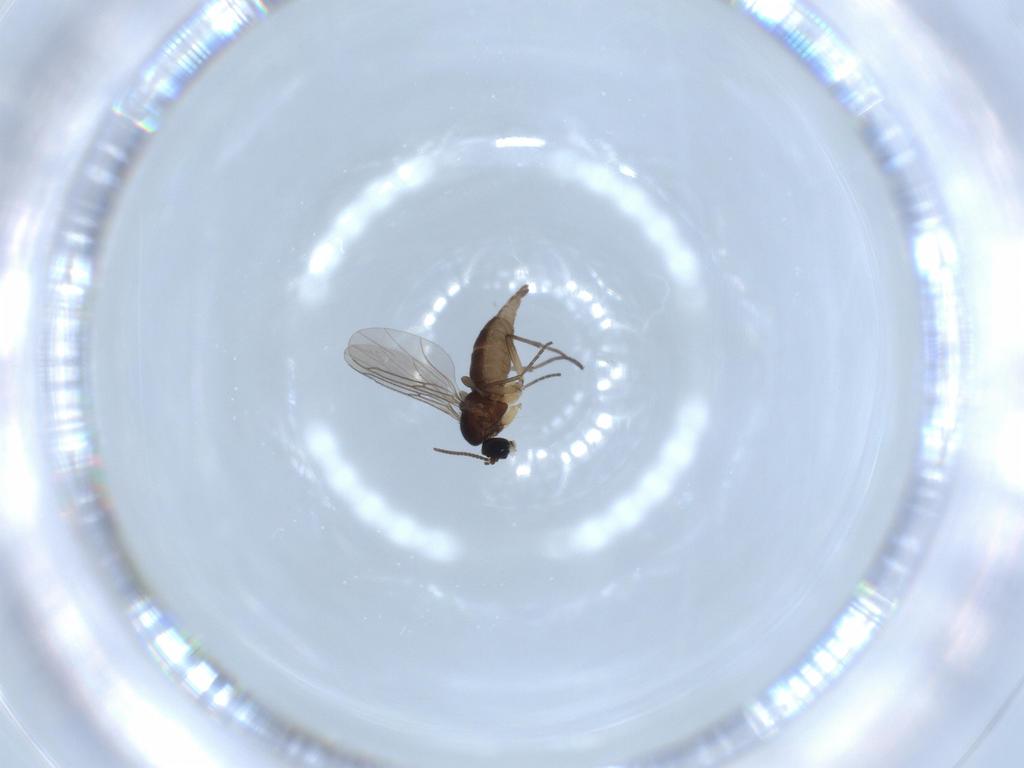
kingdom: Animalia
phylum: Arthropoda
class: Insecta
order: Diptera
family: Sciaridae
